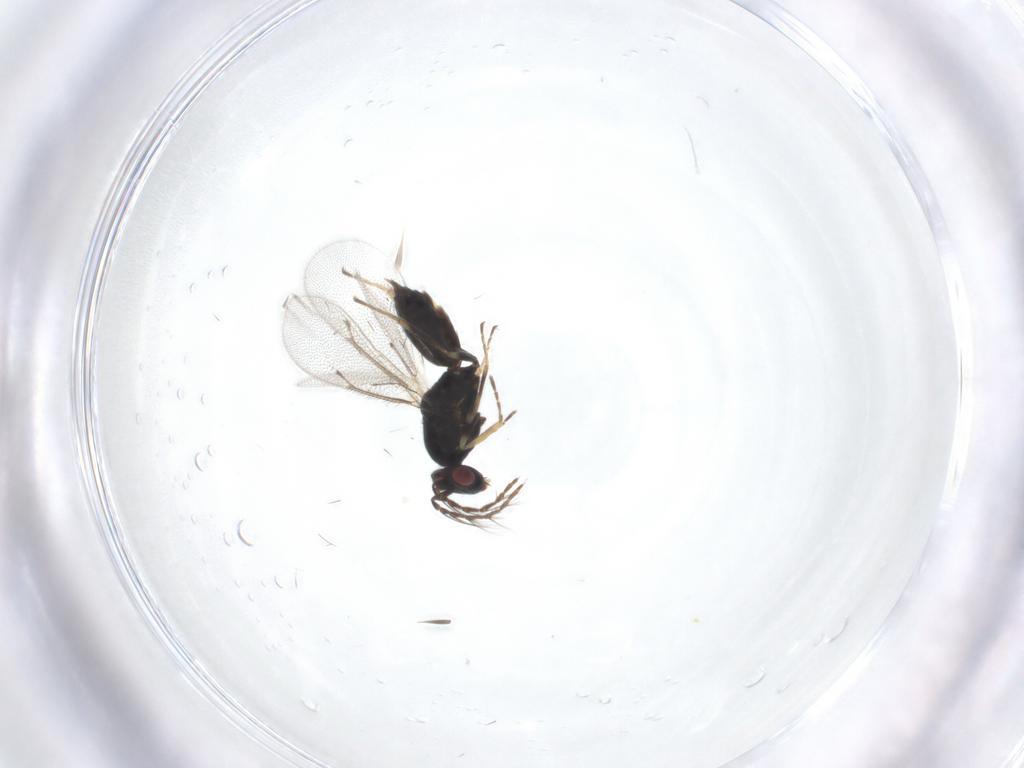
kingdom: Animalia
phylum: Arthropoda
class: Insecta
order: Hymenoptera
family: Eulophidae
